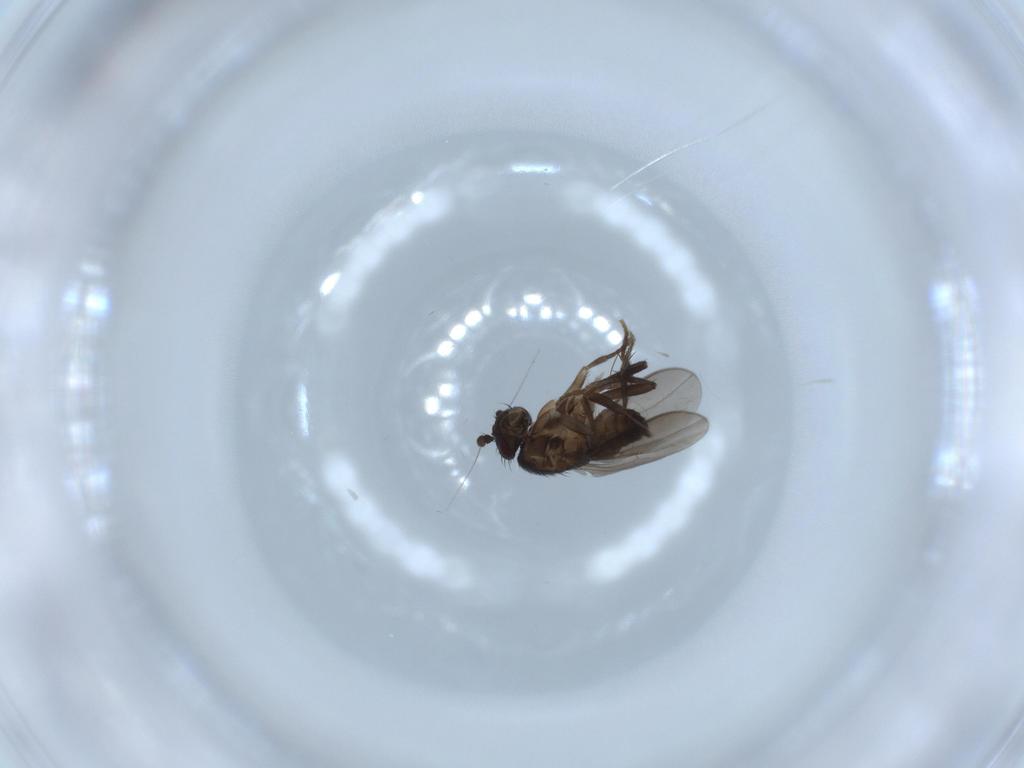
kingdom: Animalia
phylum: Arthropoda
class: Insecta
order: Diptera
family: Sphaeroceridae
